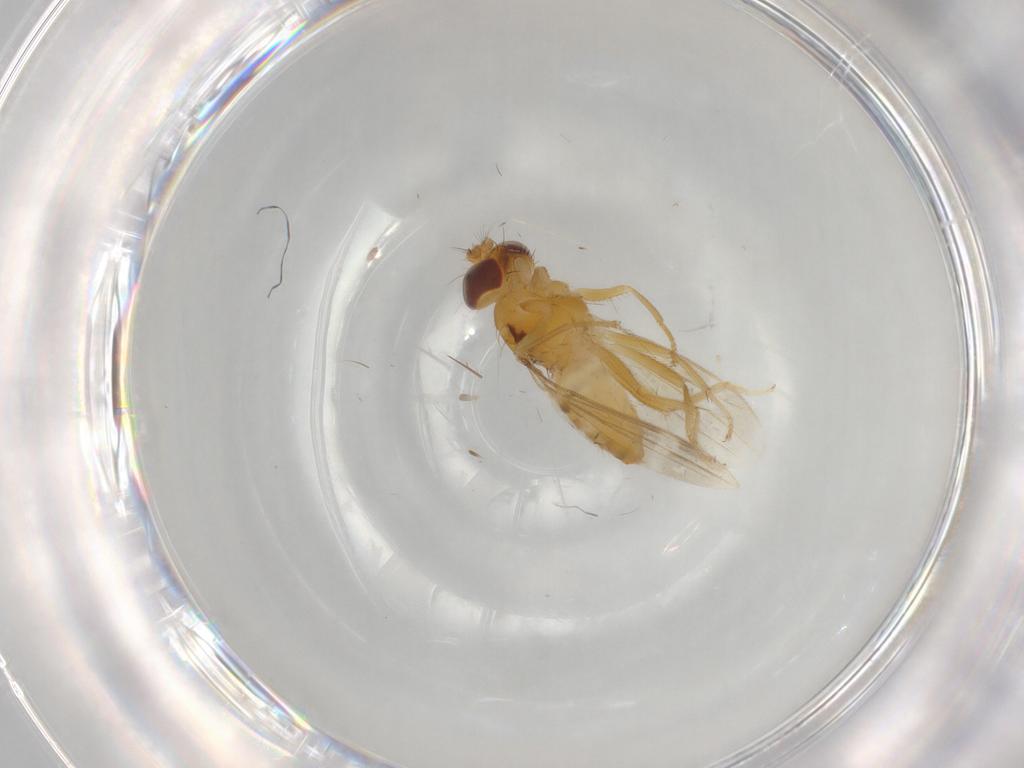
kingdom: Animalia
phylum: Arthropoda
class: Insecta
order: Diptera
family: Periscelididae
